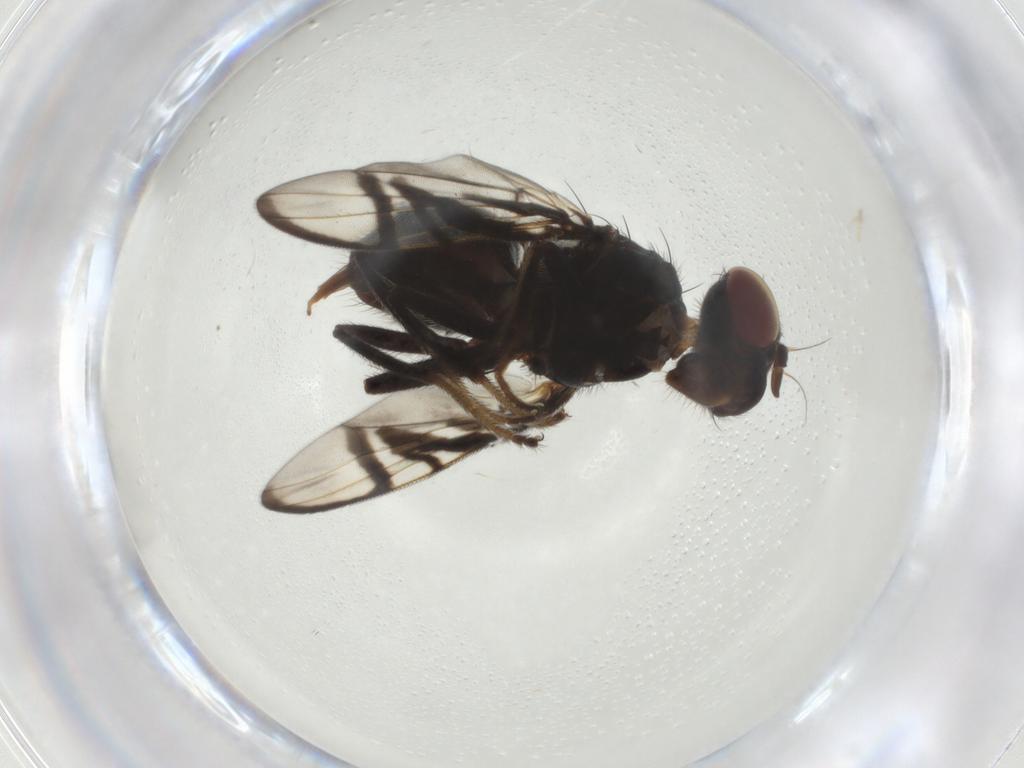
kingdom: Animalia
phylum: Arthropoda
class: Insecta
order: Diptera
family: Platystomatidae
